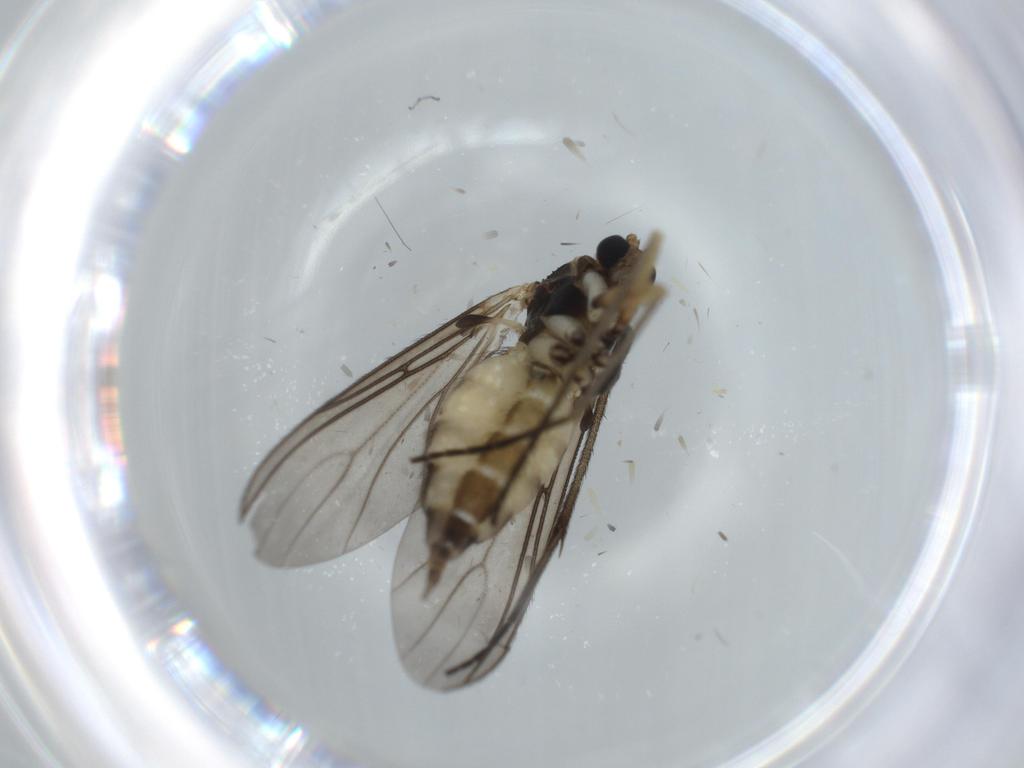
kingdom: Animalia
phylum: Arthropoda
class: Insecta
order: Diptera
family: Sciaridae
